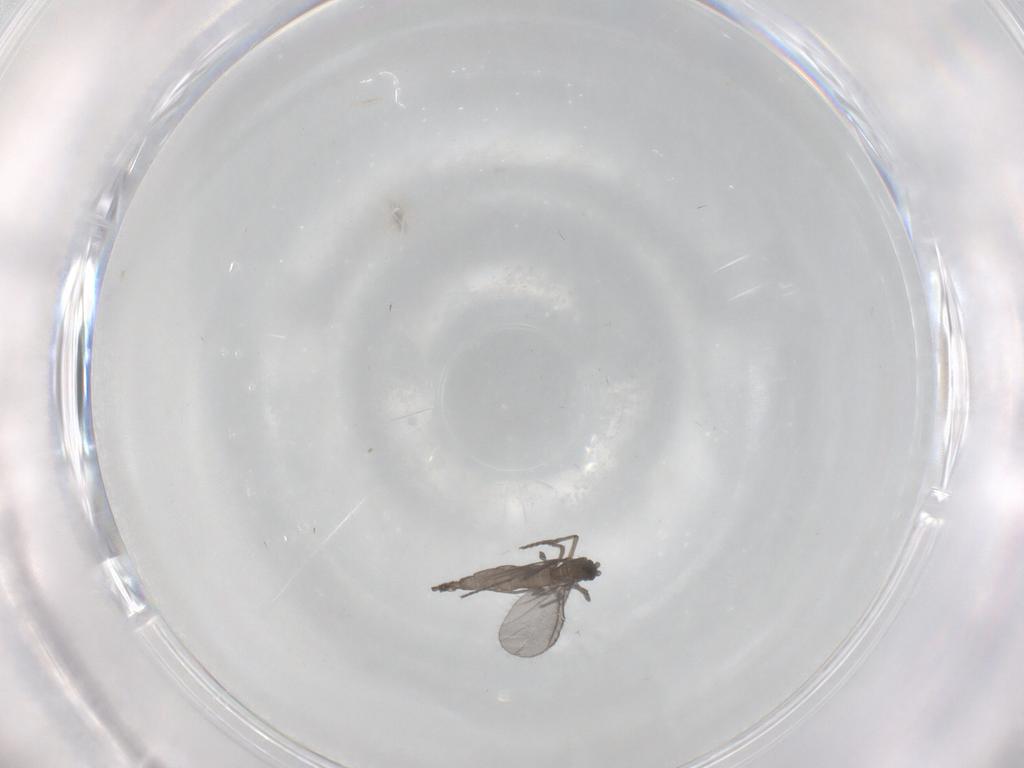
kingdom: Animalia
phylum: Arthropoda
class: Insecta
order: Diptera
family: Sciaridae
